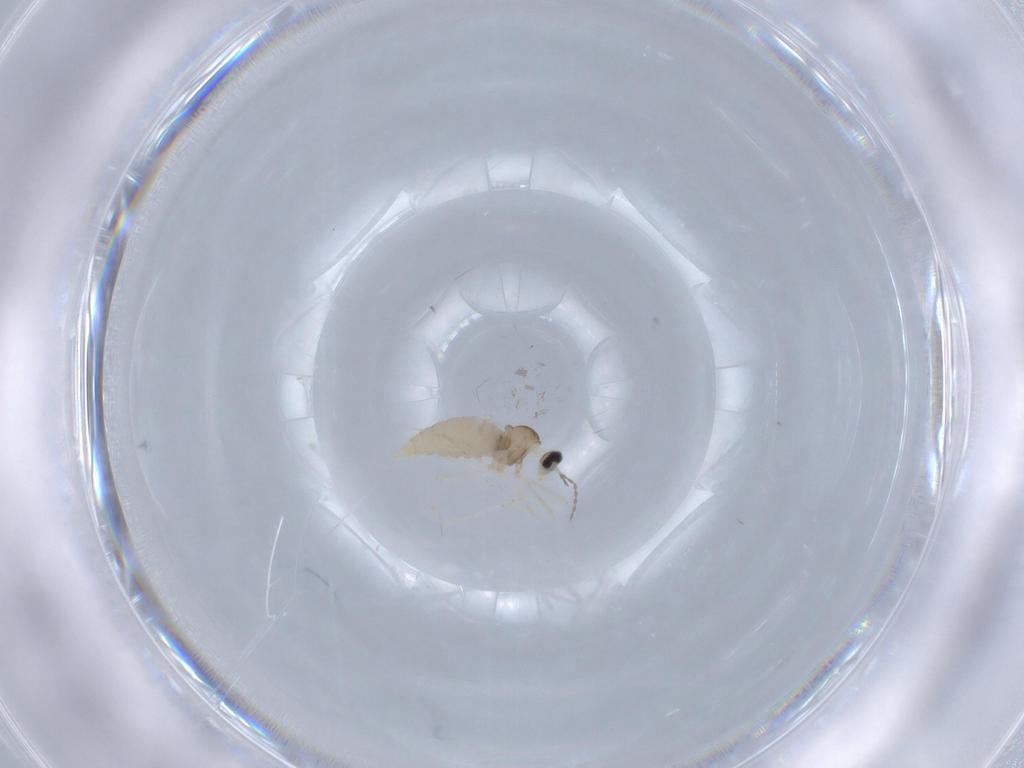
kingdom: Animalia
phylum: Arthropoda
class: Insecta
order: Diptera
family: Cecidomyiidae
